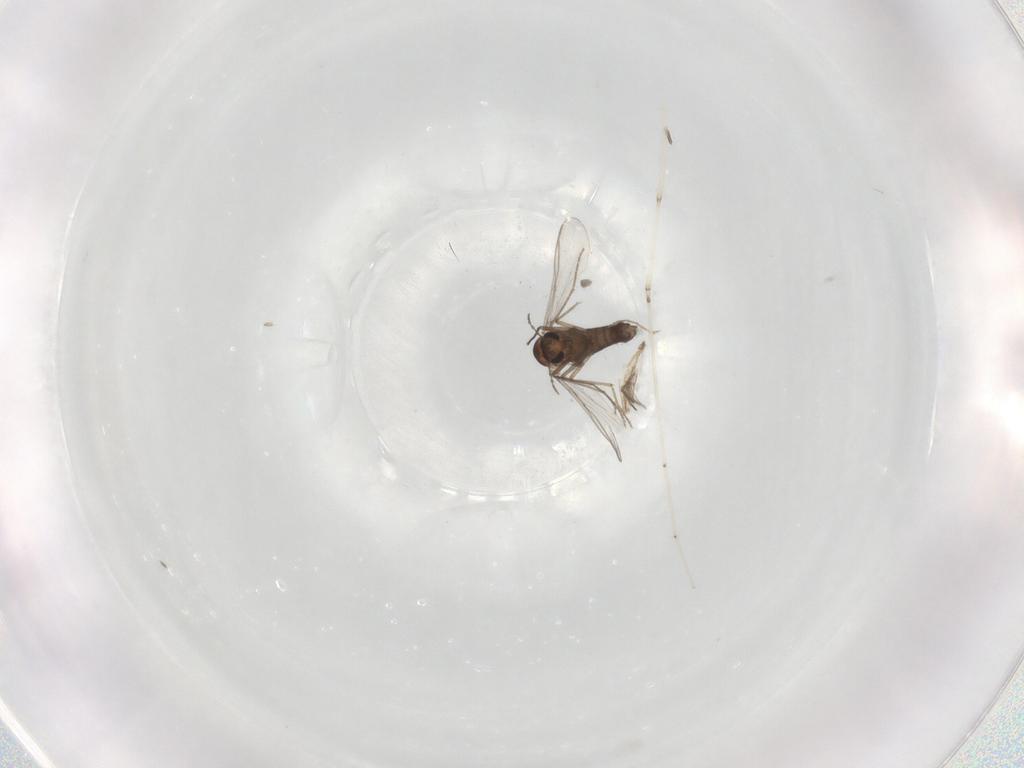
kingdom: Animalia
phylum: Arthropoda
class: Insecta
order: Diptera
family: Chironomidae
